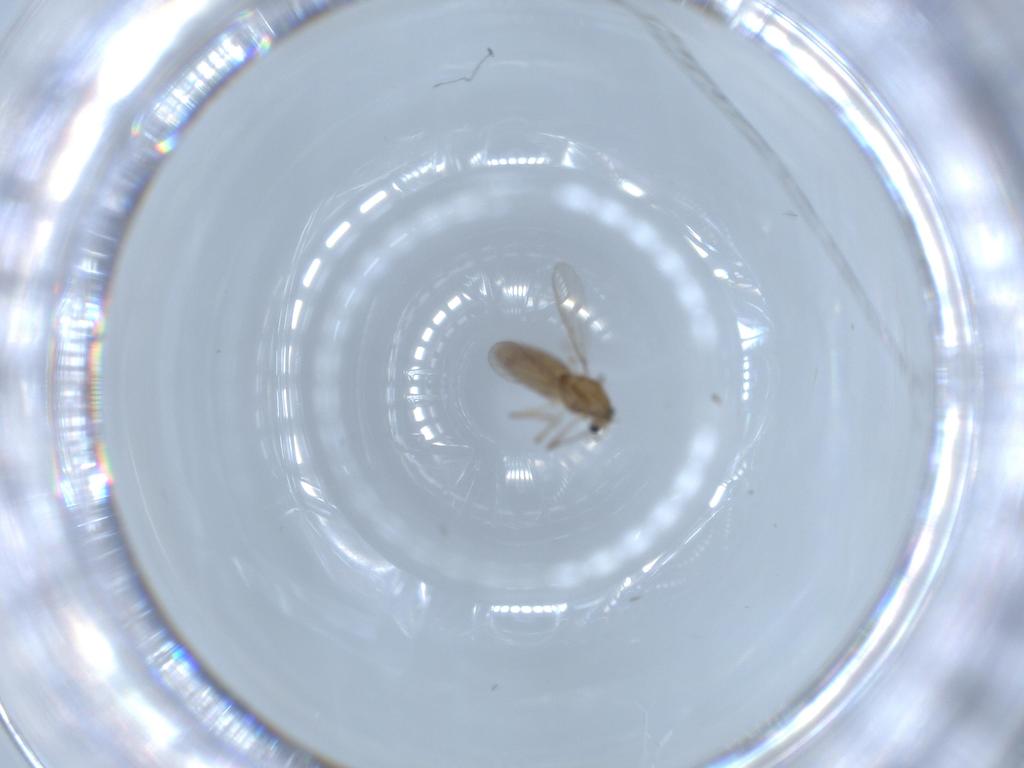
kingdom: Animalia
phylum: Arthropoda
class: Insecta
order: Diptera
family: Chironomidae
